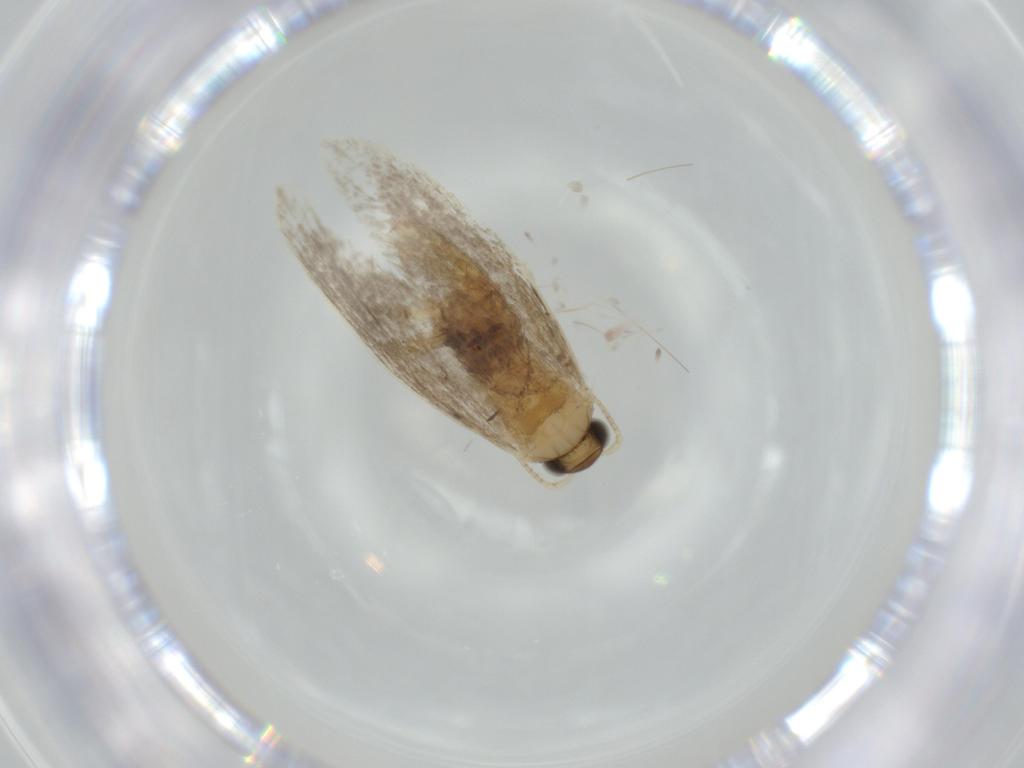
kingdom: Animalia
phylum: Arthropoda
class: Insecta
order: Lepidoptera
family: Tineidae
